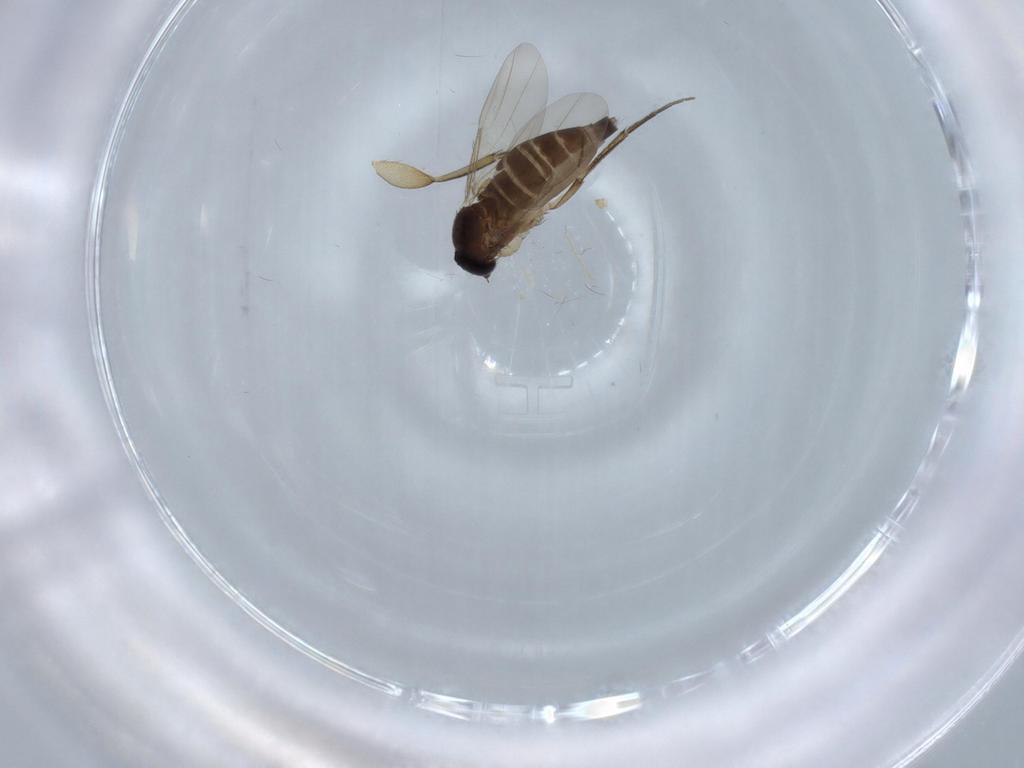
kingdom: Animalia
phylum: Arthropoda
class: Insecta
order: Diptera
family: Phoridae
